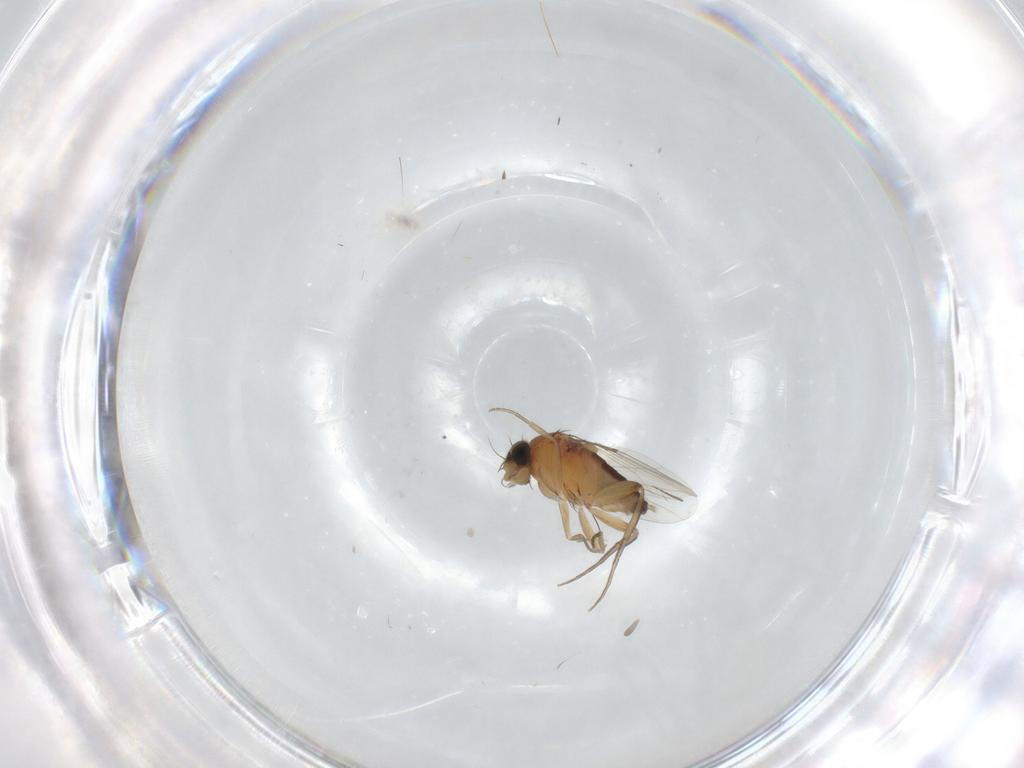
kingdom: Animalia
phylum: Arthropoda
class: Insecta
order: Diptera
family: Phoridae
